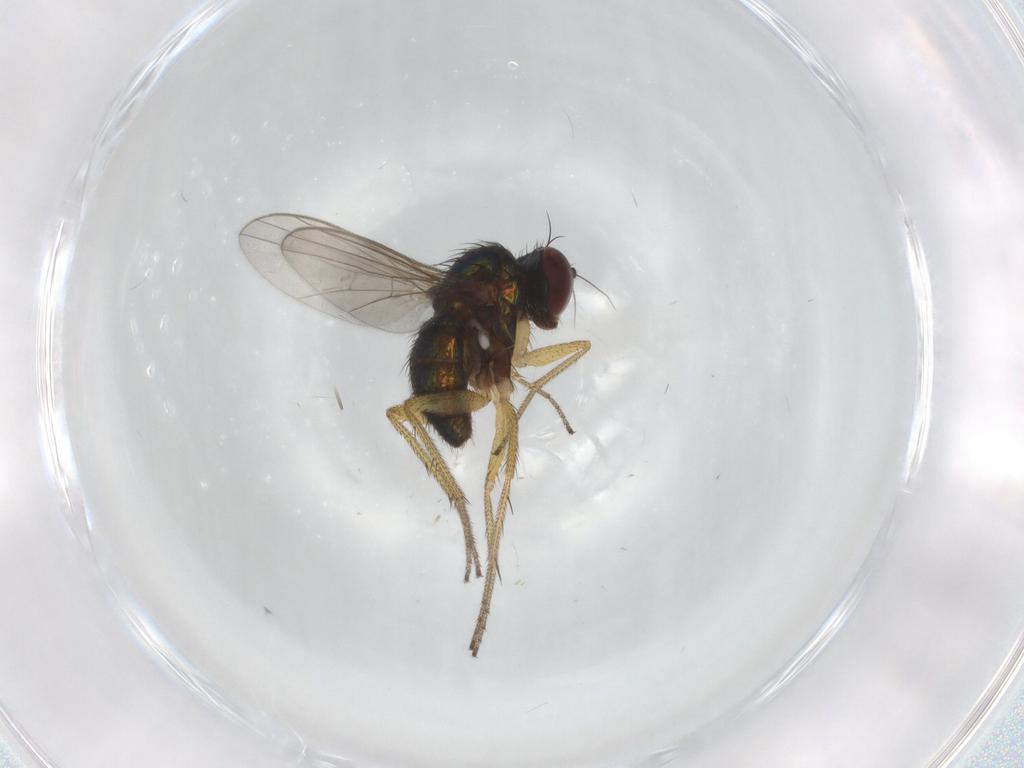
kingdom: Animalia
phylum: Arthropoda
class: Insecta
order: Diptera
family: Dolichopodidae
